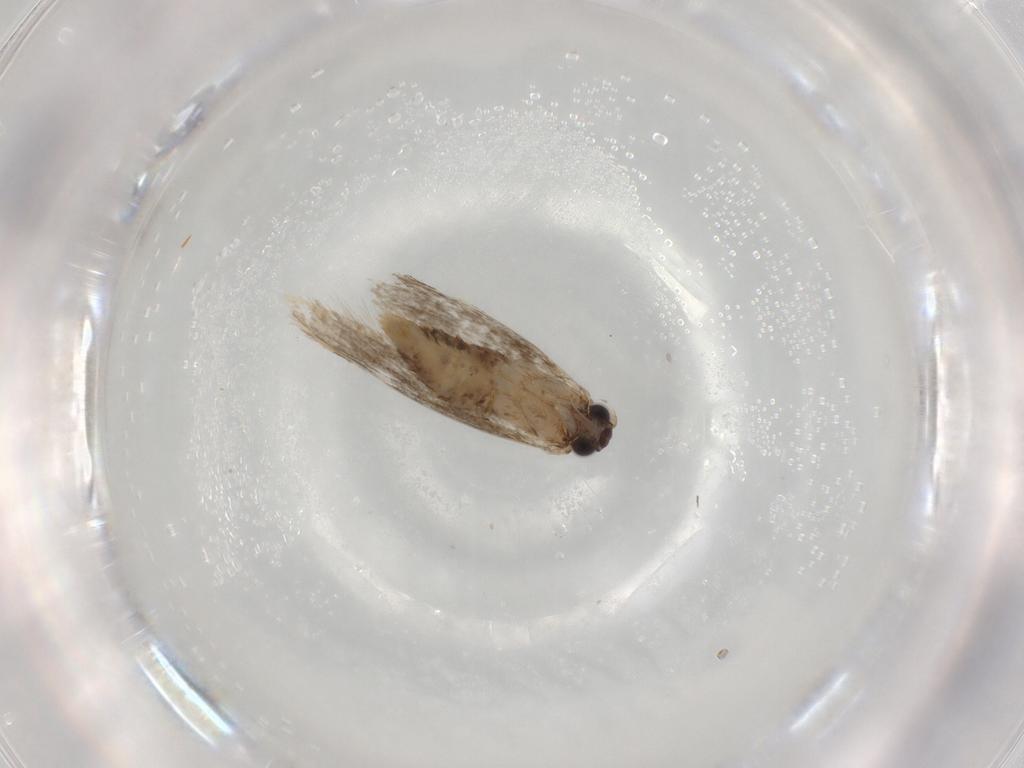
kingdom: Animalia
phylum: Arthropoda
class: Insecta
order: Lepidoptera
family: Tineidae
